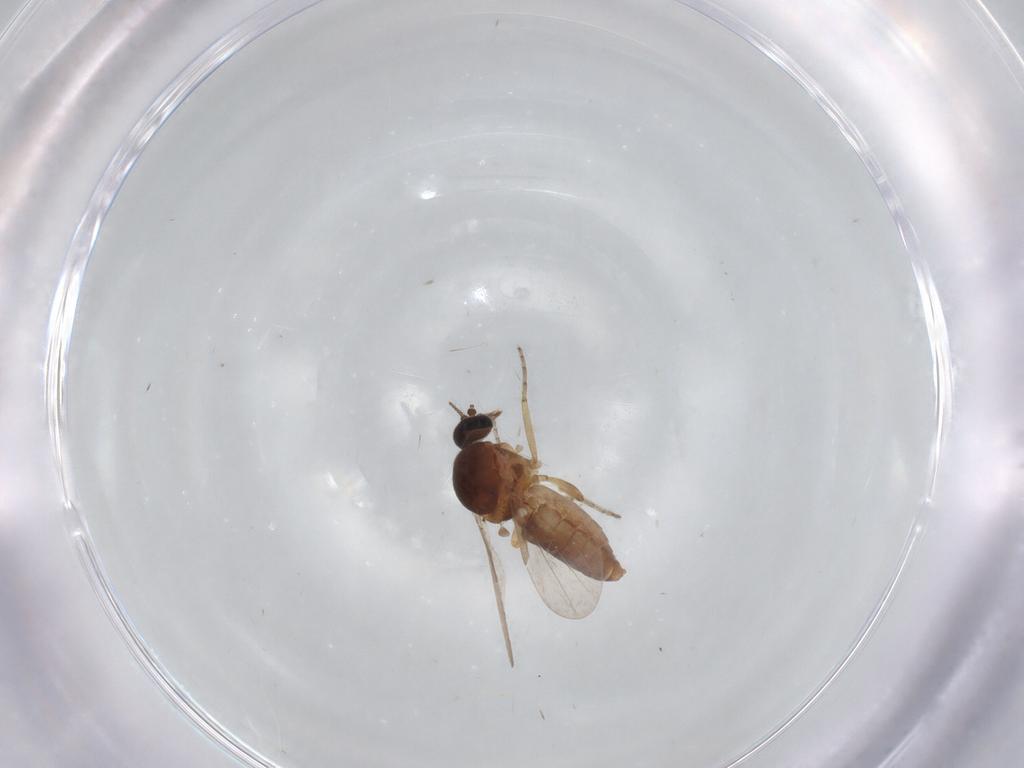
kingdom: Animalia
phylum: Arthropoda
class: Insecta
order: Diptera
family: Ceratopogonidae
